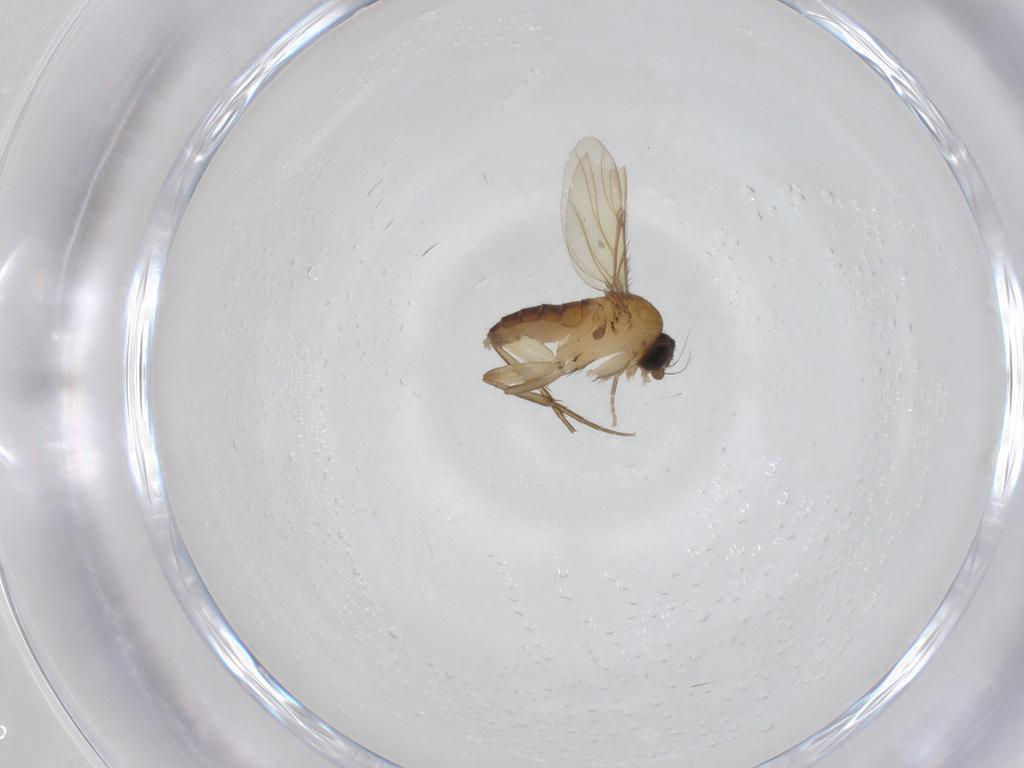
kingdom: Animalia
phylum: Arthropoda
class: Insecta
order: Diptera
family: Phoridae
